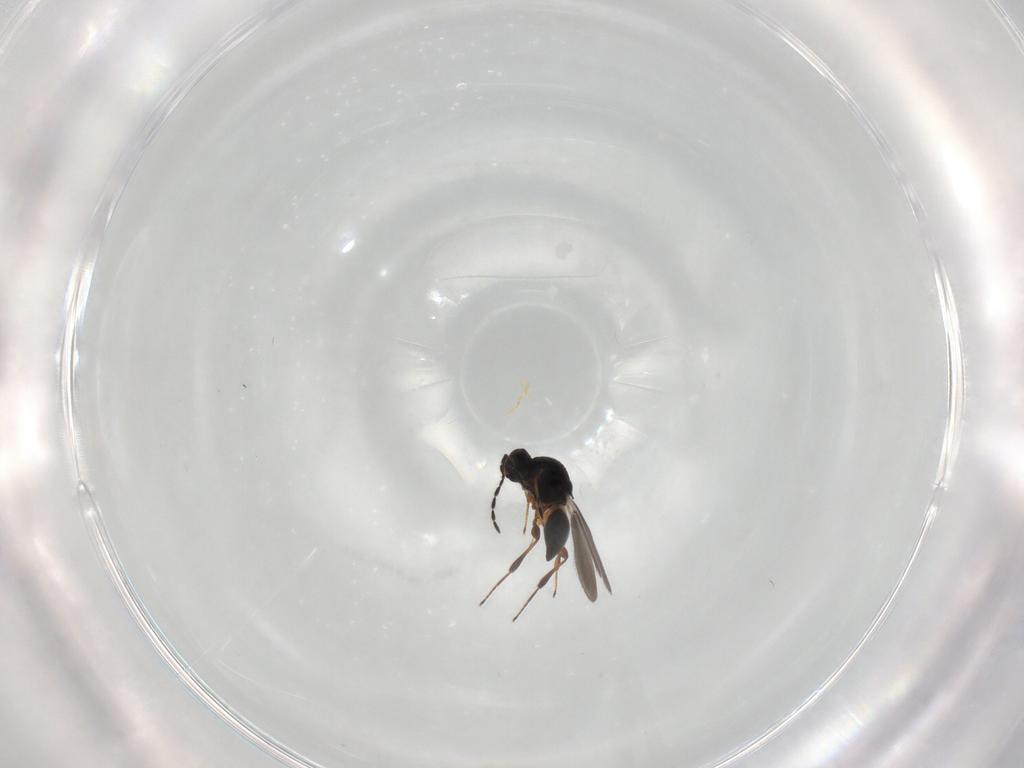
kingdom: Animalia
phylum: Arthropoda
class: Insecta
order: Hymenoptera
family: Platygastridae
